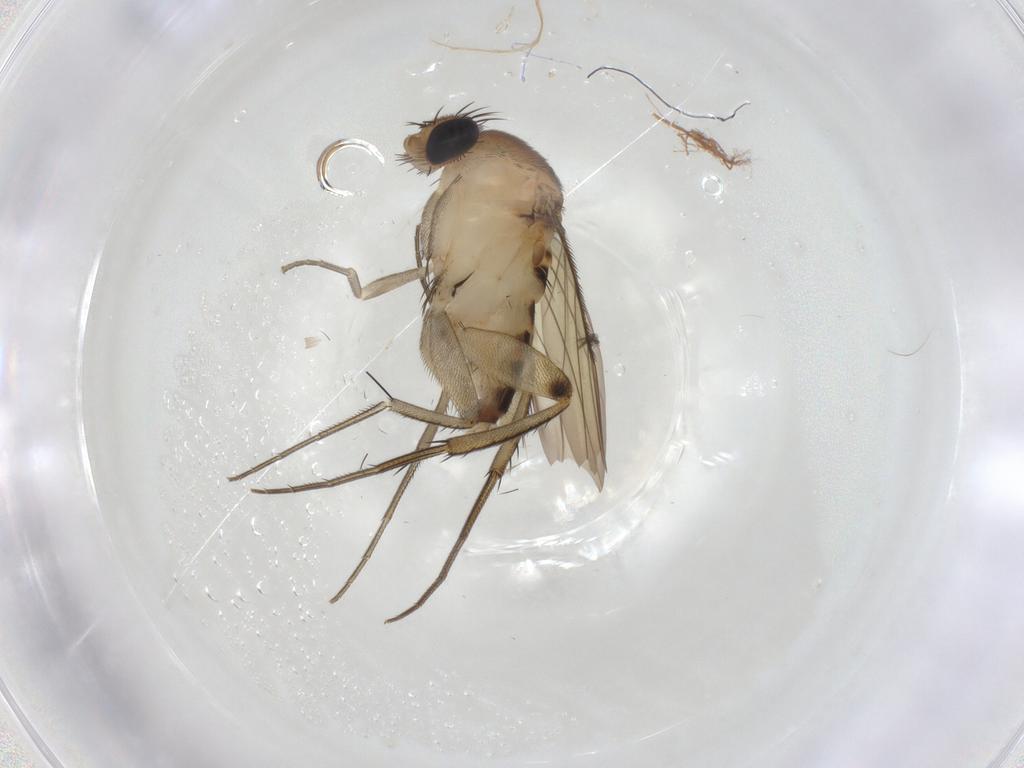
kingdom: Animalia
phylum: Arthropoda
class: Insecta
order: Diptera
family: Phoridae
